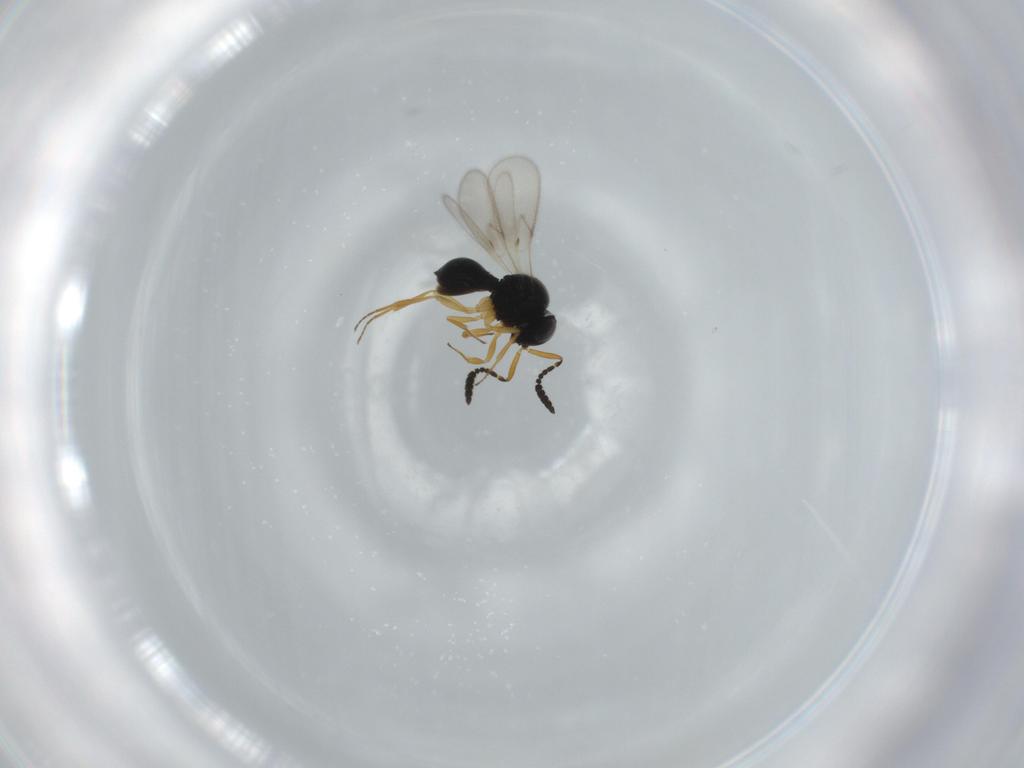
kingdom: Animalia
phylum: Arthropoda
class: Insecta
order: Hymenoptera
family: Scelionidae
